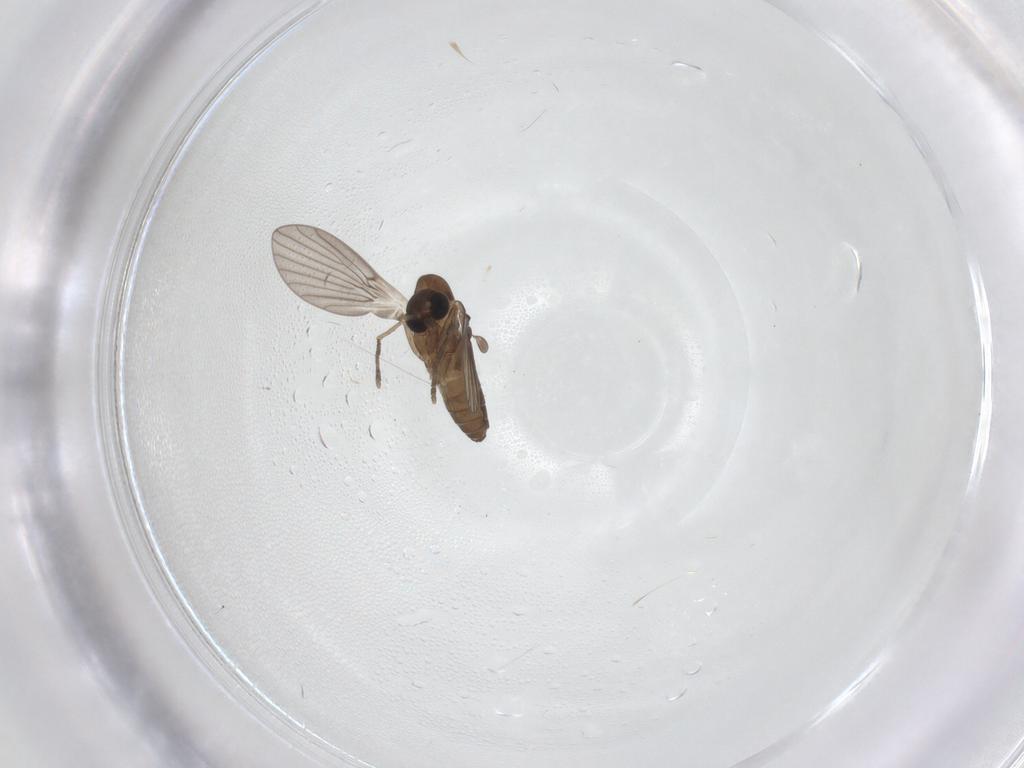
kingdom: Animalia
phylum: Arthropoda
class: Insecta
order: Diptera
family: Psychodidae
